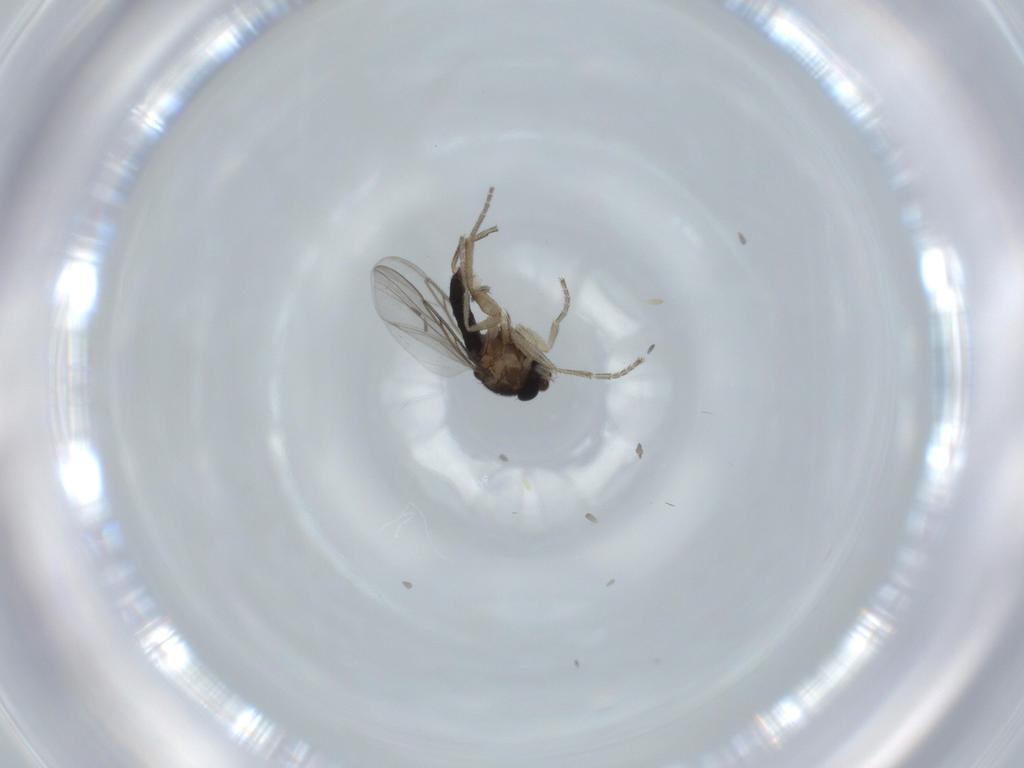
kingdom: Animalia
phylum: Arthropoda
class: Insecta
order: Diptera
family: Phoridae
